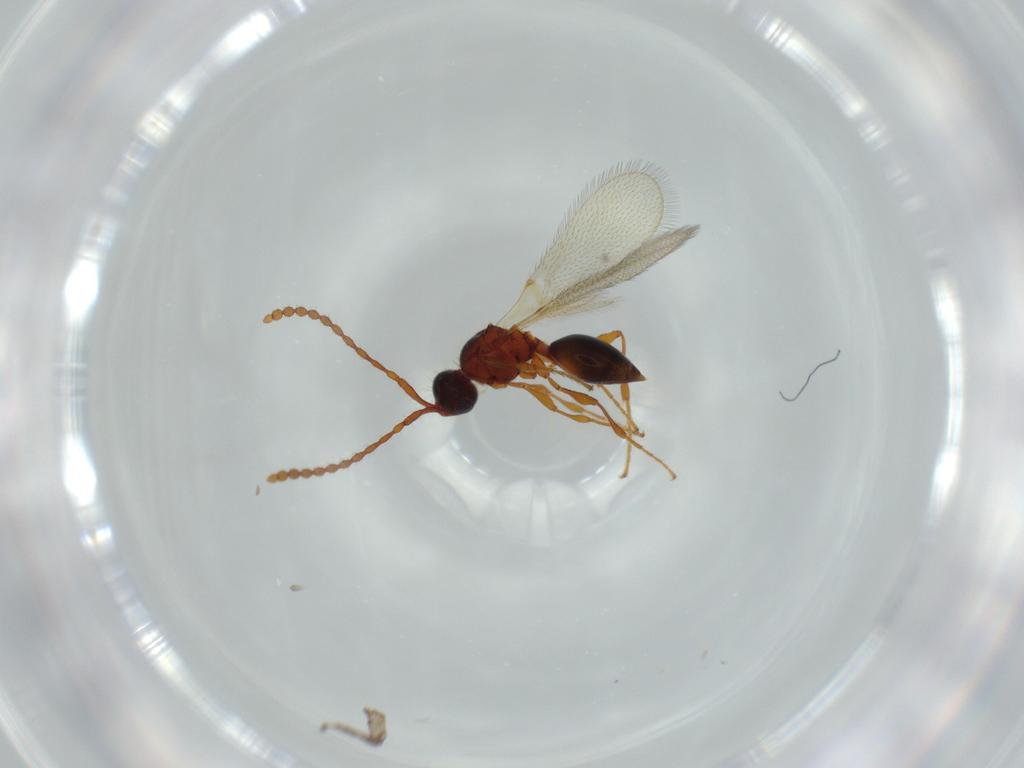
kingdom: Animalia
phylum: Arthropoda
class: Insecta
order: Hymenoptera
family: Diapriidae
